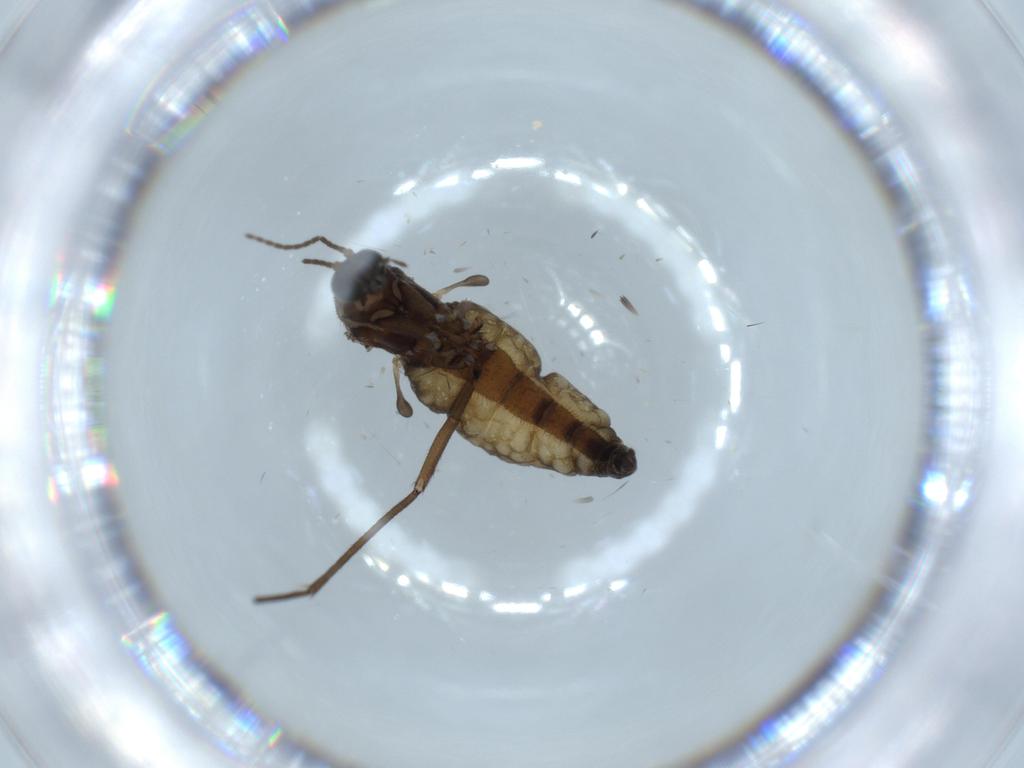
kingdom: Animalia
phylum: Arthropoda
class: Insecta
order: Diptera
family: Sciaridae
